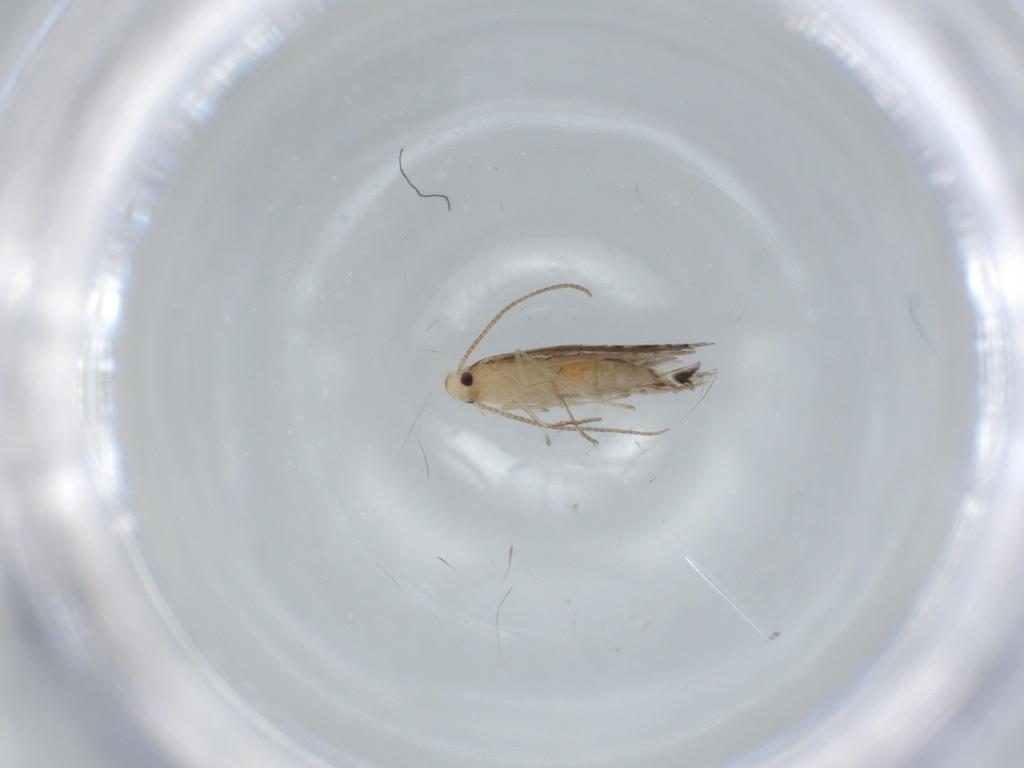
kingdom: Animalia
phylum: Arthropoda
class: Insecta
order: Lepidoptera
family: Gracillariidae
